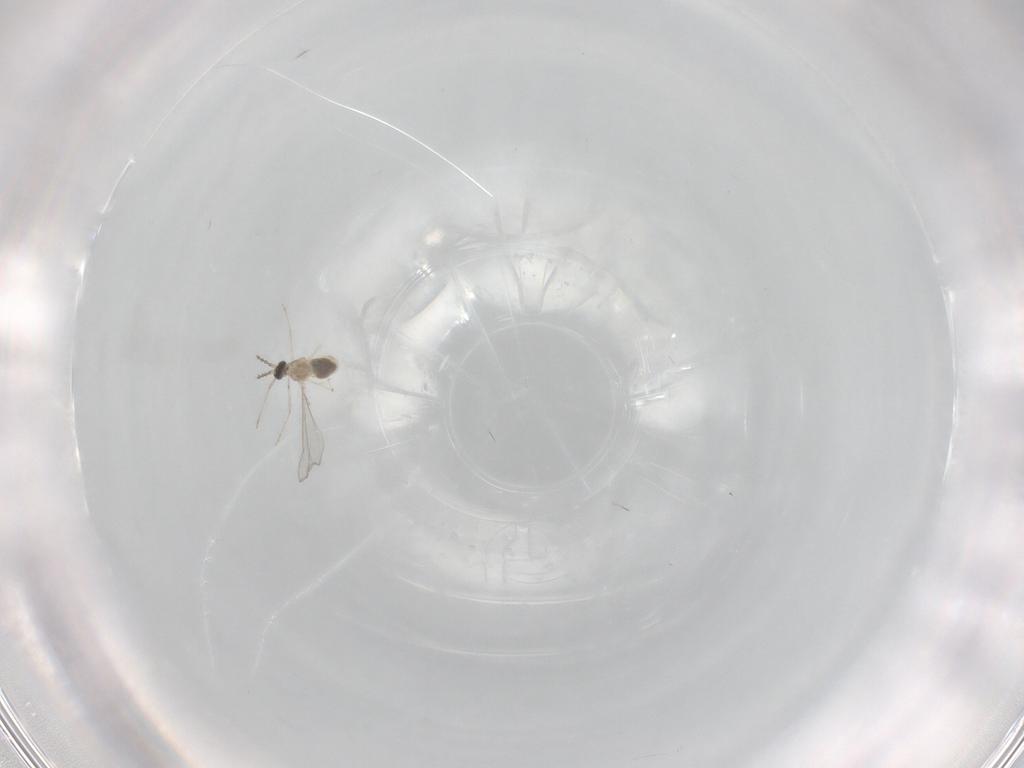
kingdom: Animalia
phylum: Arthropoda
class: Insecta
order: Diptera
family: Cecidomyiidae
